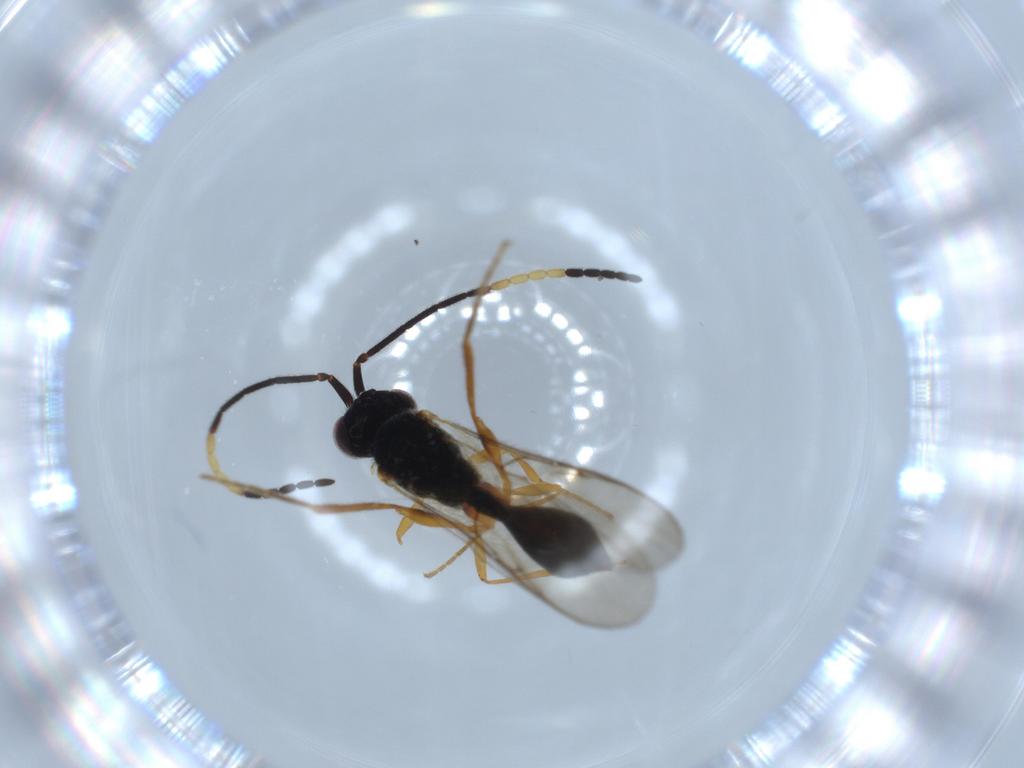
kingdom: Animalia
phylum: Arthropoda
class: Insecta
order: Hymenoptera
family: Diapriidae
